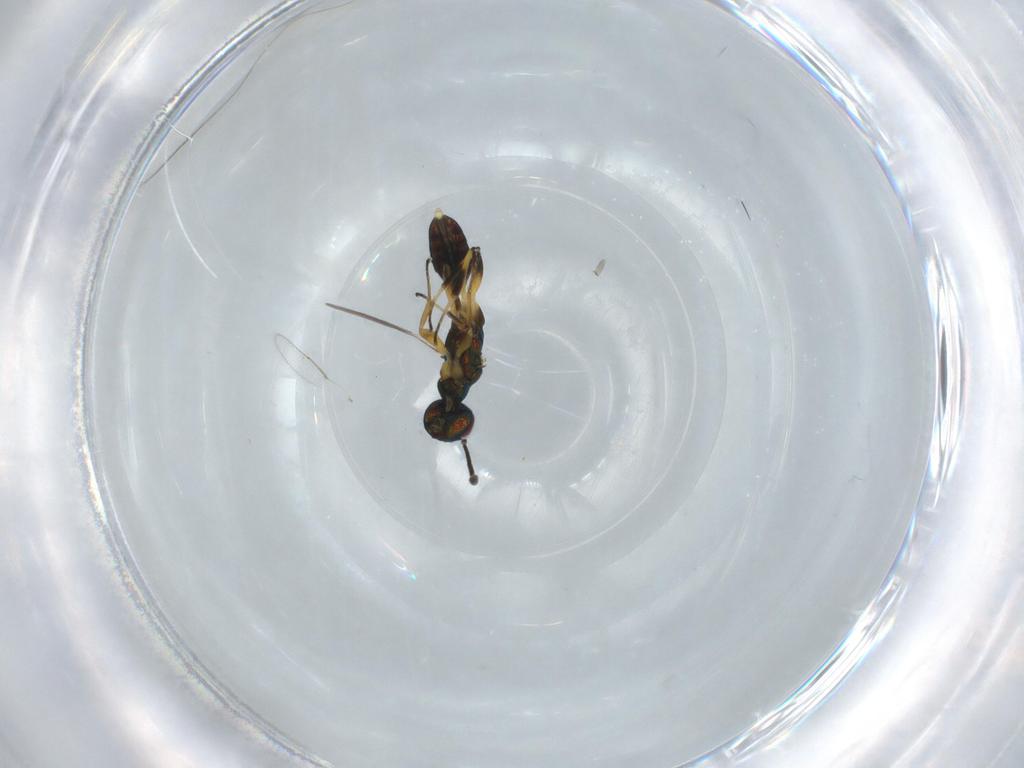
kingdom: Animalia
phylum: Arthropoda
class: Insecta
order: Hymenoptera
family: Eupelmidae
